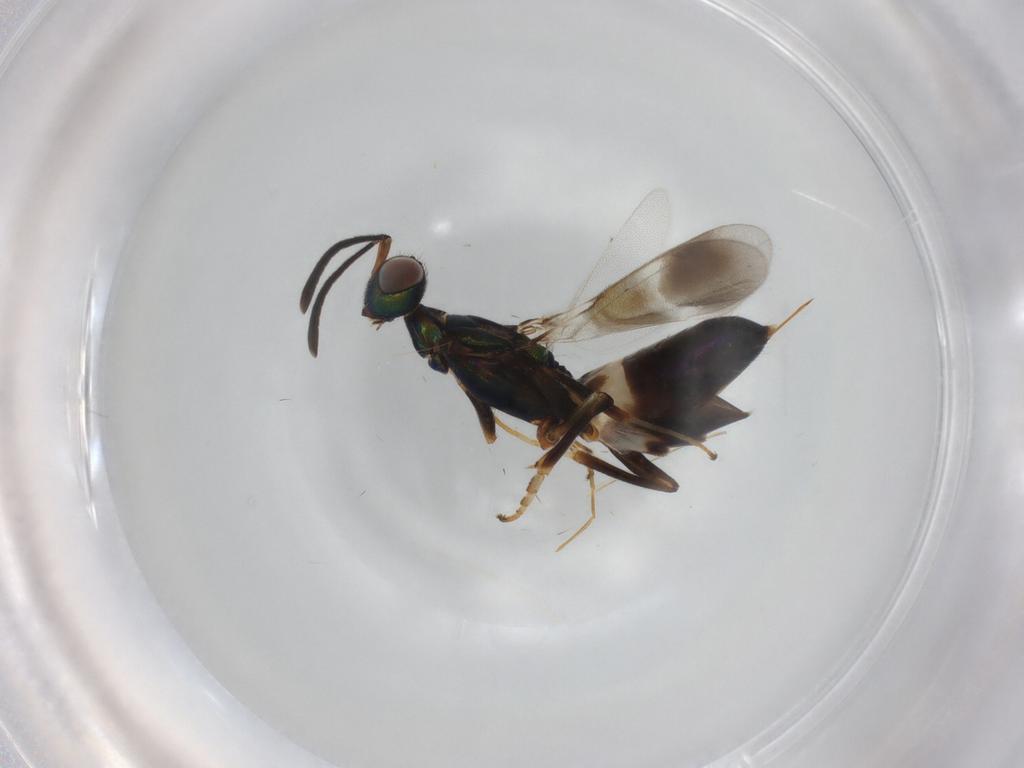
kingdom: Animalia
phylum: Arthropoda
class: Insecta
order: Hymenoptera
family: Eupelmidae
